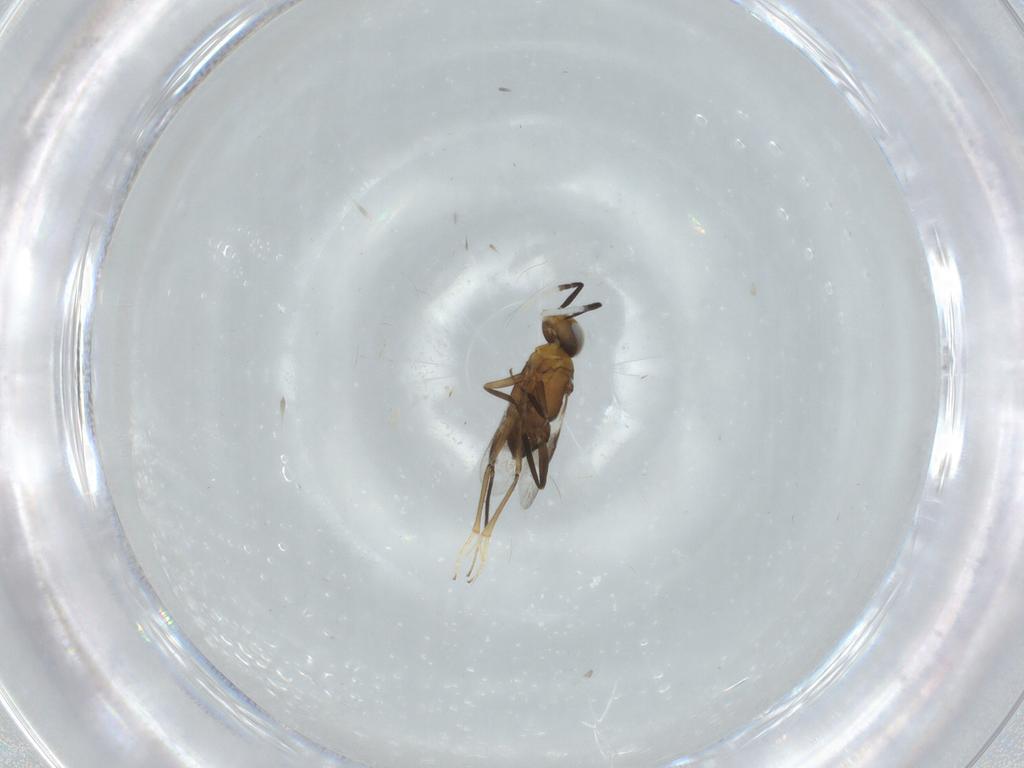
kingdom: Animalia
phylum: Arthropoda
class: Insecta
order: Hymenoptera
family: Encyrtidae
